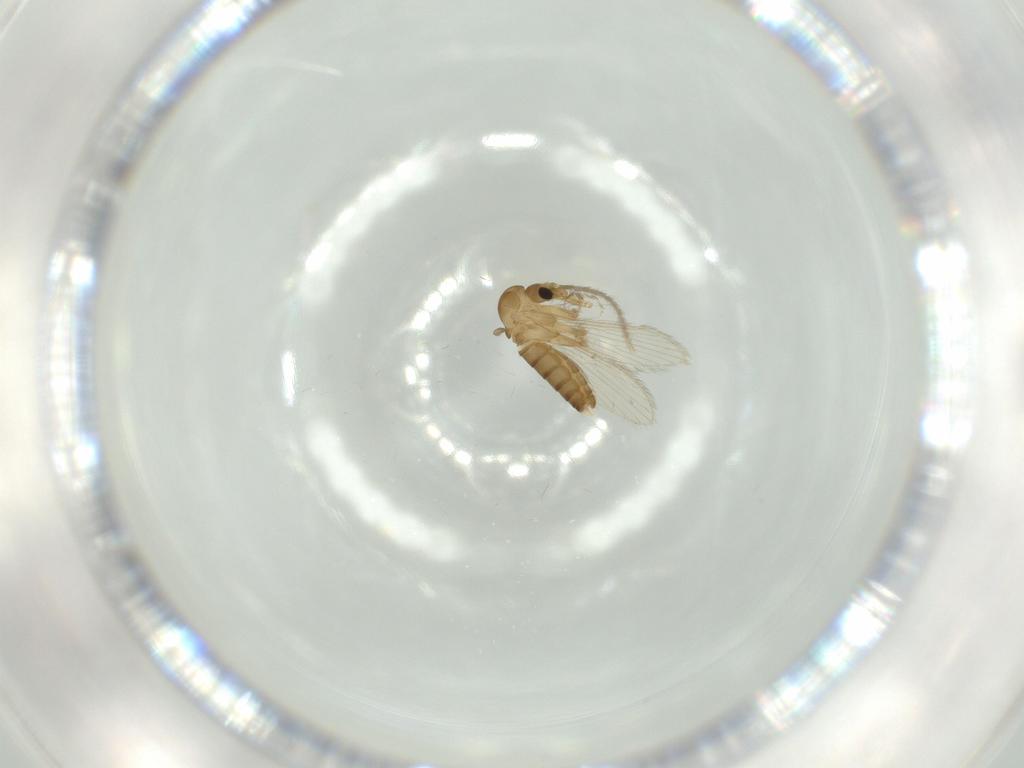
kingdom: Animalia
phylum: Arthropoda
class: Insecta
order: Diptera
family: Psychodidae
